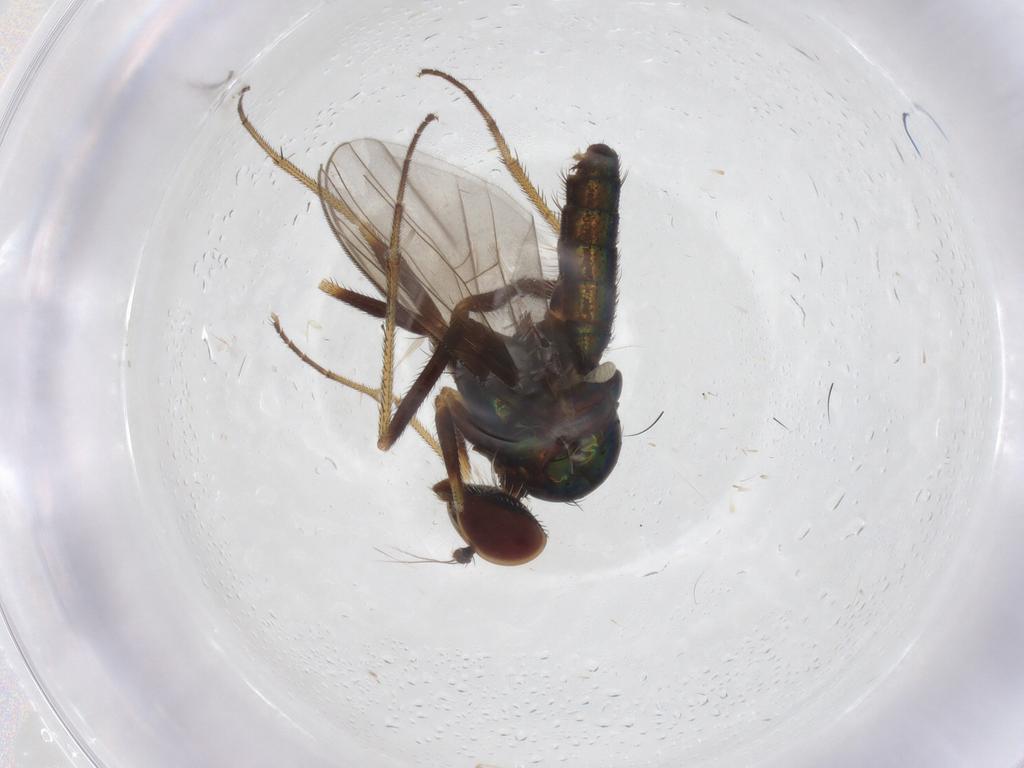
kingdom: Animalia
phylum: Arthropoda
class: Insecta
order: Diptera
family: Dolichopodidae
